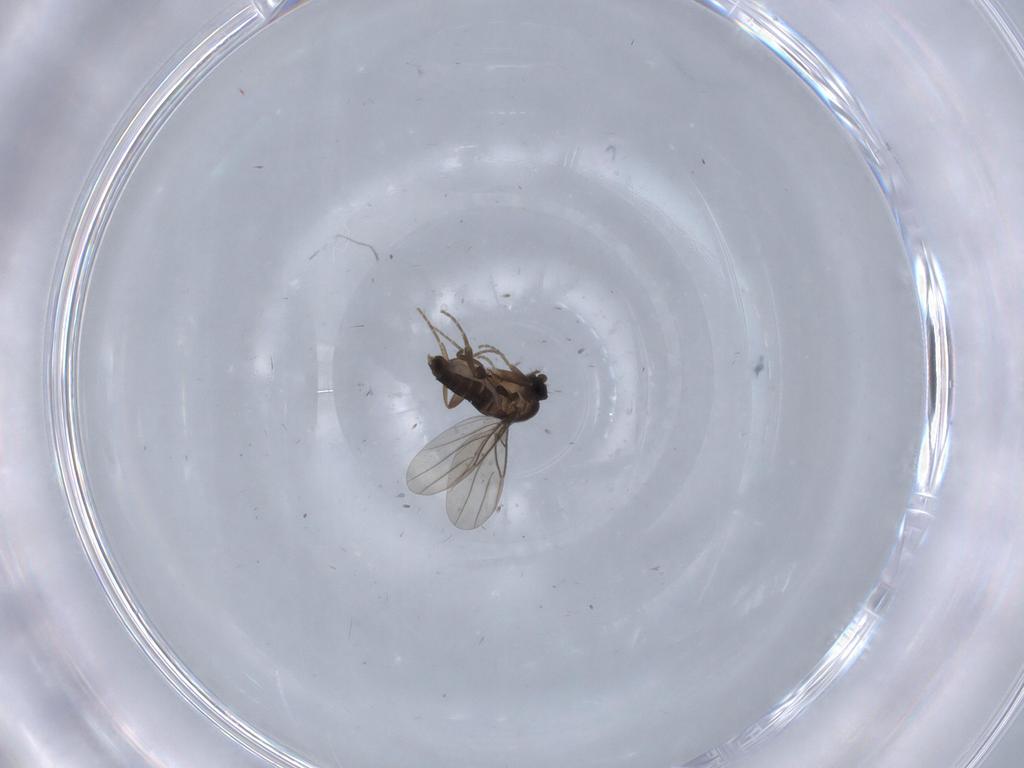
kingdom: Animalia
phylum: Arthropoda
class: Insecta
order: Diptera
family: Phoridae
